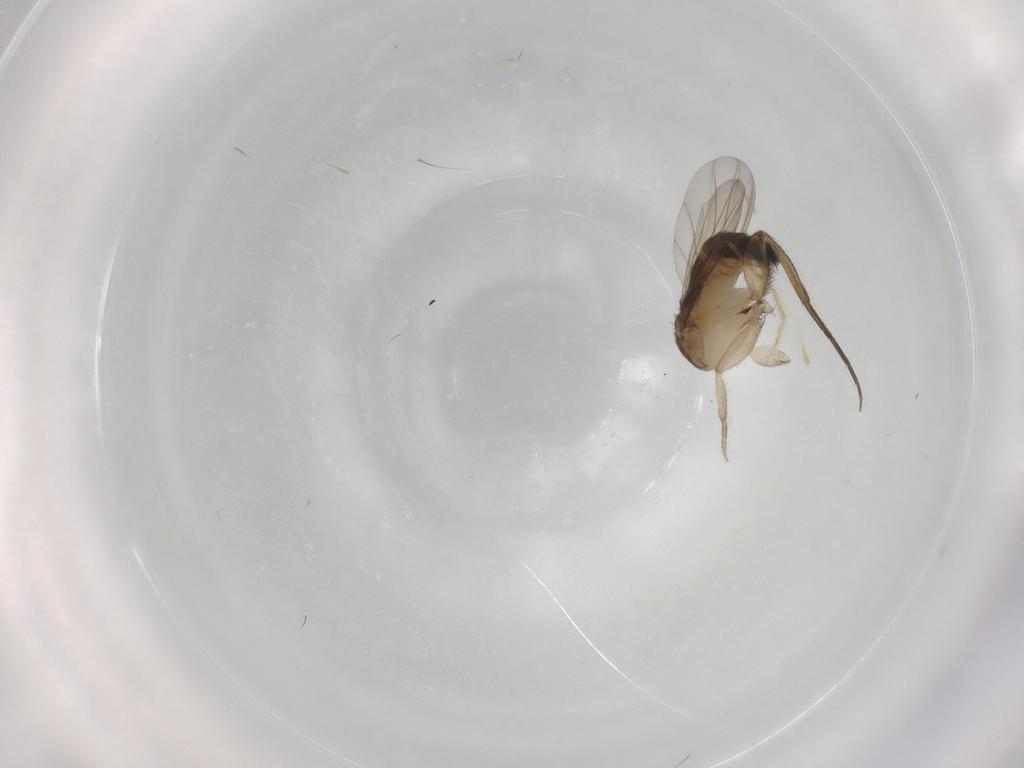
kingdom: Animalia
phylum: Arthropoda
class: Insecta
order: Diptera
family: Phoridae
